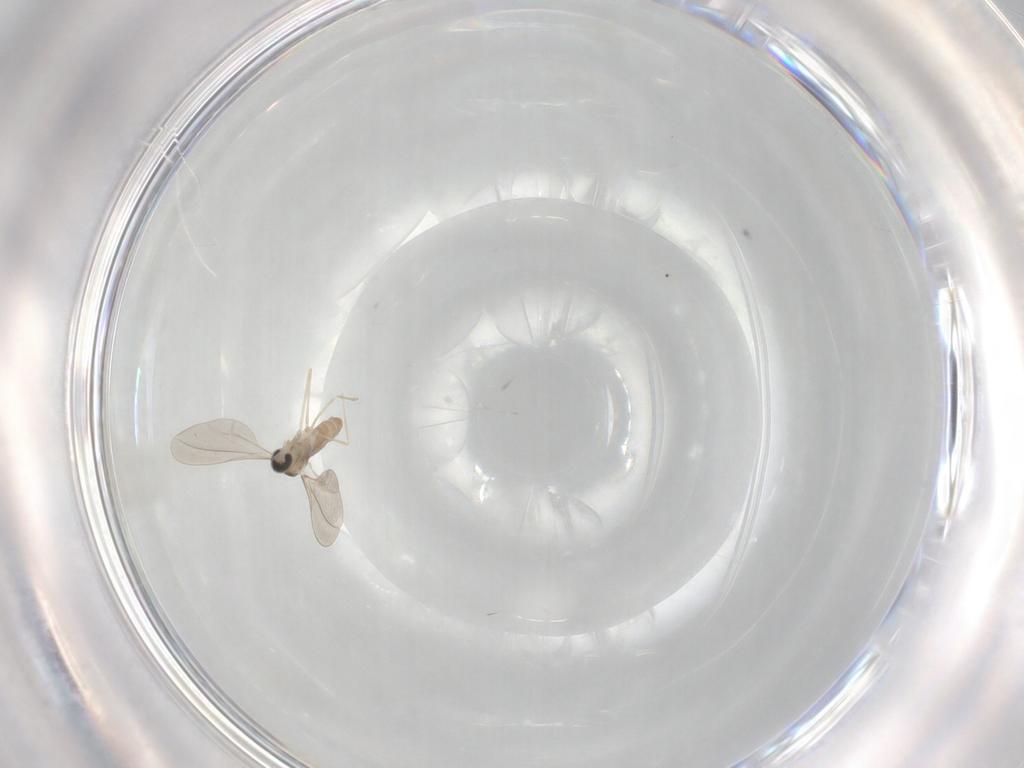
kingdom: Animalia
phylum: Arthropoda
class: Insecta
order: Diptera
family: Cecidomyiidae
